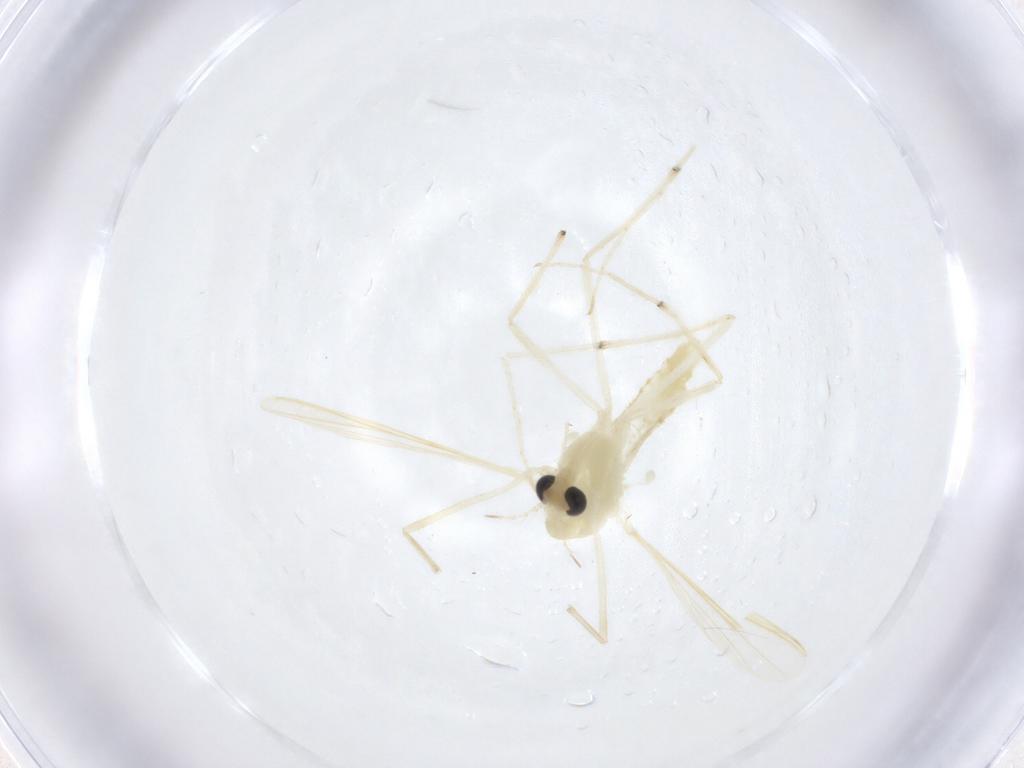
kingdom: Animalia
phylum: Arthropoda
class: Insecta
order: Diptera
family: Chironomidae
